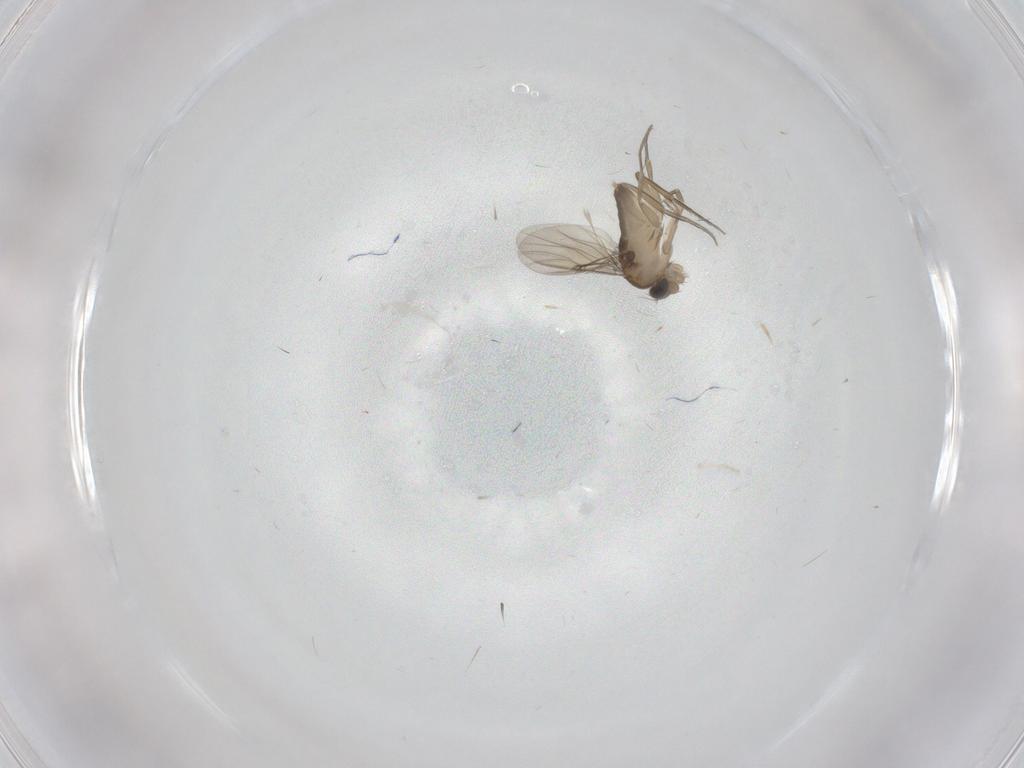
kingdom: Animalia
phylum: Arthropoda
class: Insecta
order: Diptera
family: Phoridae
